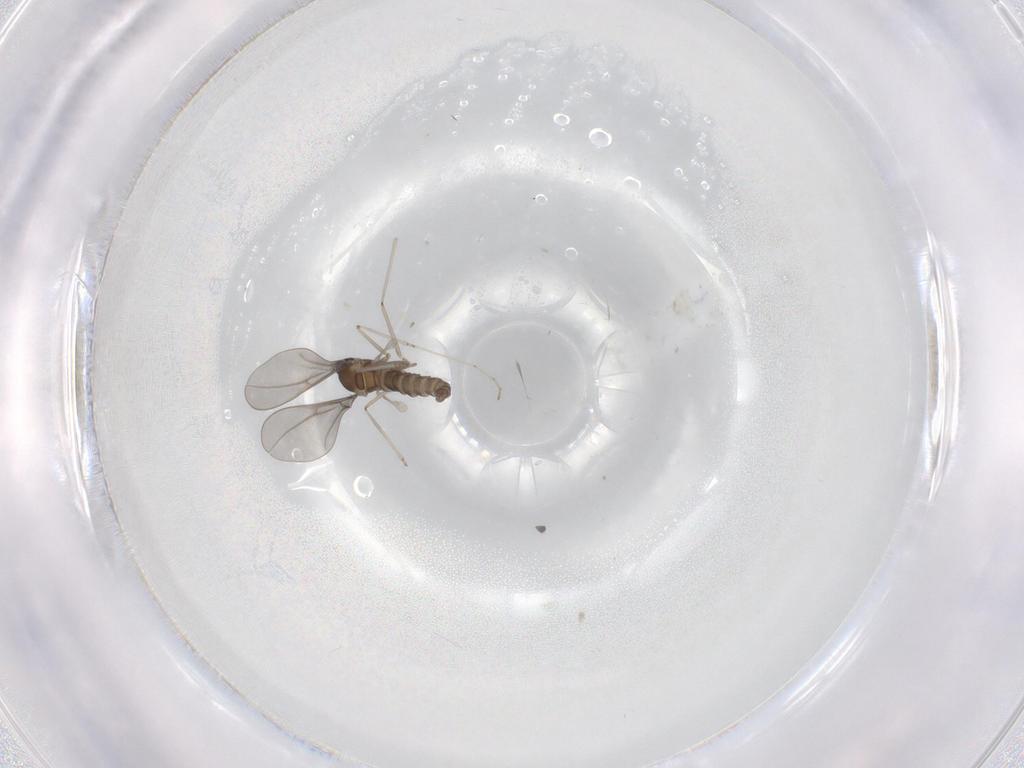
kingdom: Animalia
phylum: Arthropoda
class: Insecta
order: Diptera
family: Cecidomyiidae
